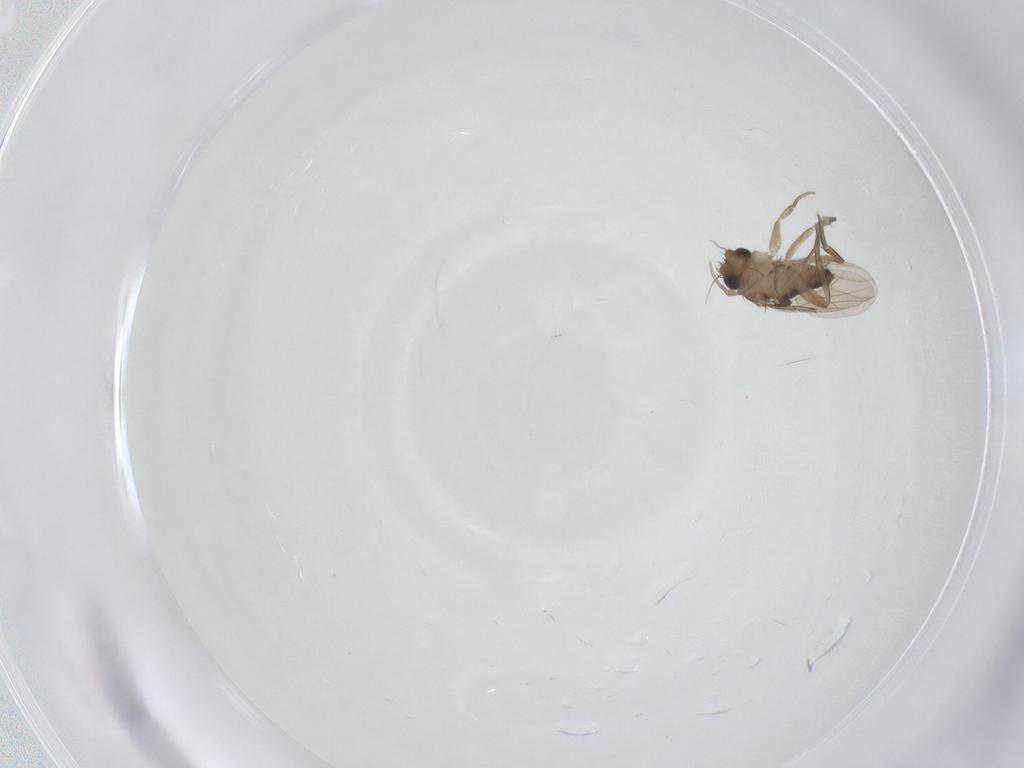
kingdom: Animalia
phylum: Arthropoda
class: Insecta
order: Diptera
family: Phoridae
